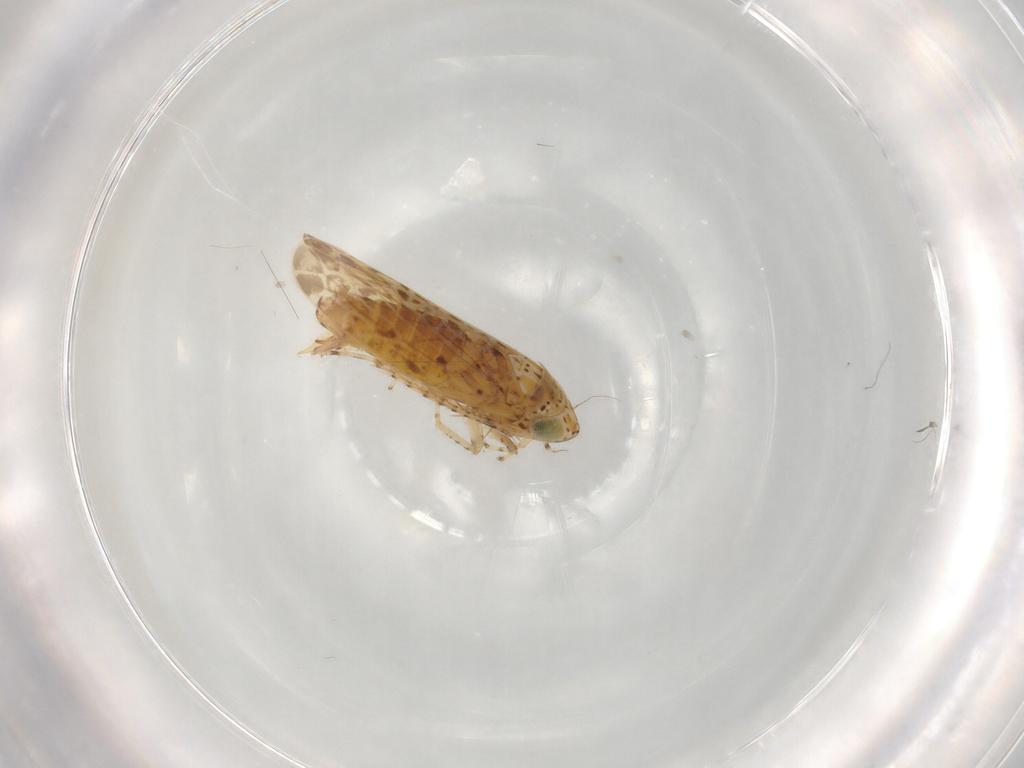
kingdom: Animalia
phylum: Arthropoda
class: Insecta
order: Hemiptera
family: Cicadellidae
